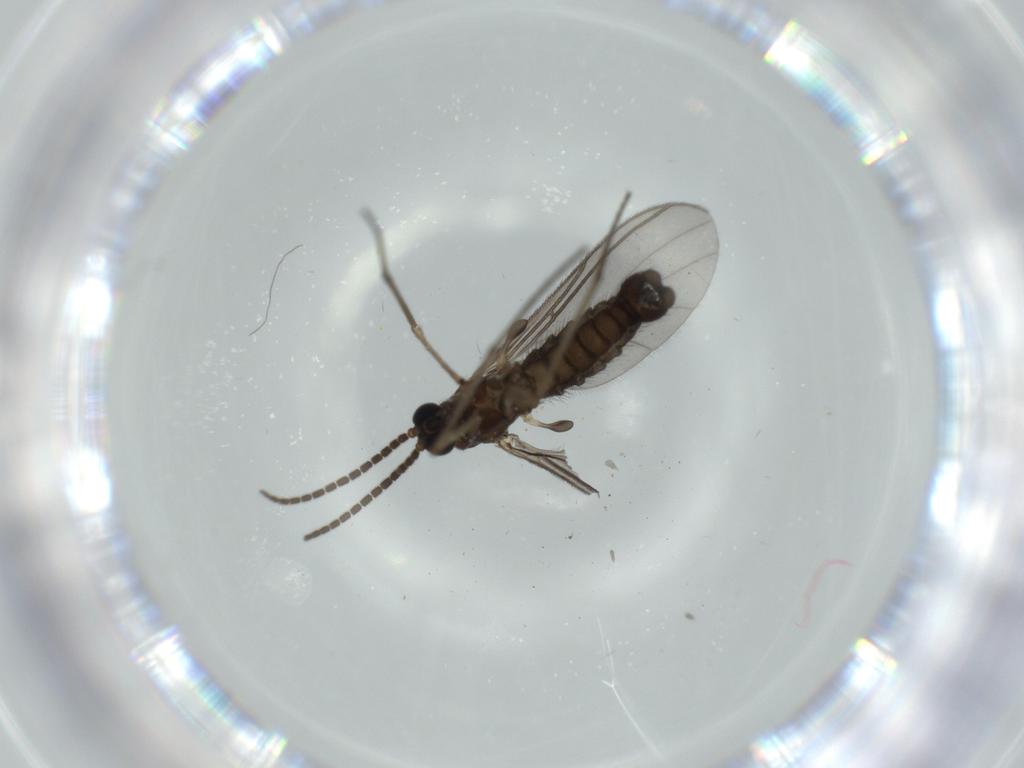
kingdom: Animalia
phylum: Arthropoda
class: Insecta
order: Diptera
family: Sciaridae
